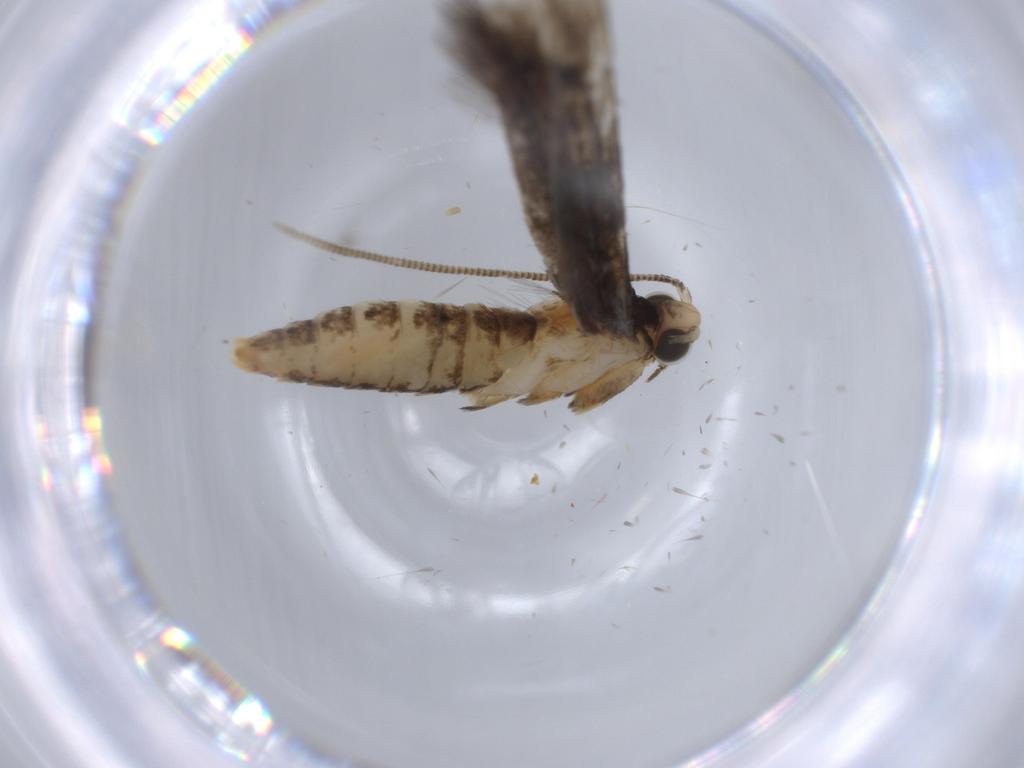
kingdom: Animalia
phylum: Arthropoda
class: Insecta
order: Lepidoptera
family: Tineidae
